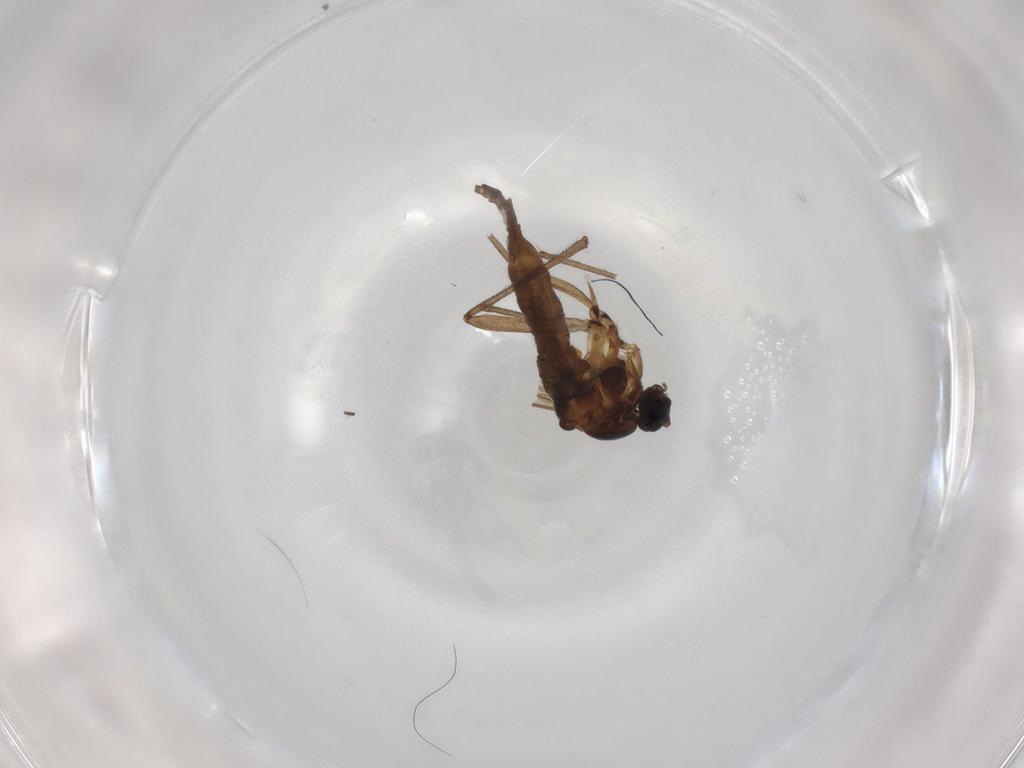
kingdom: Animalia
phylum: Arthropoda
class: Insecta
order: Diptera
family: Sciaridae
